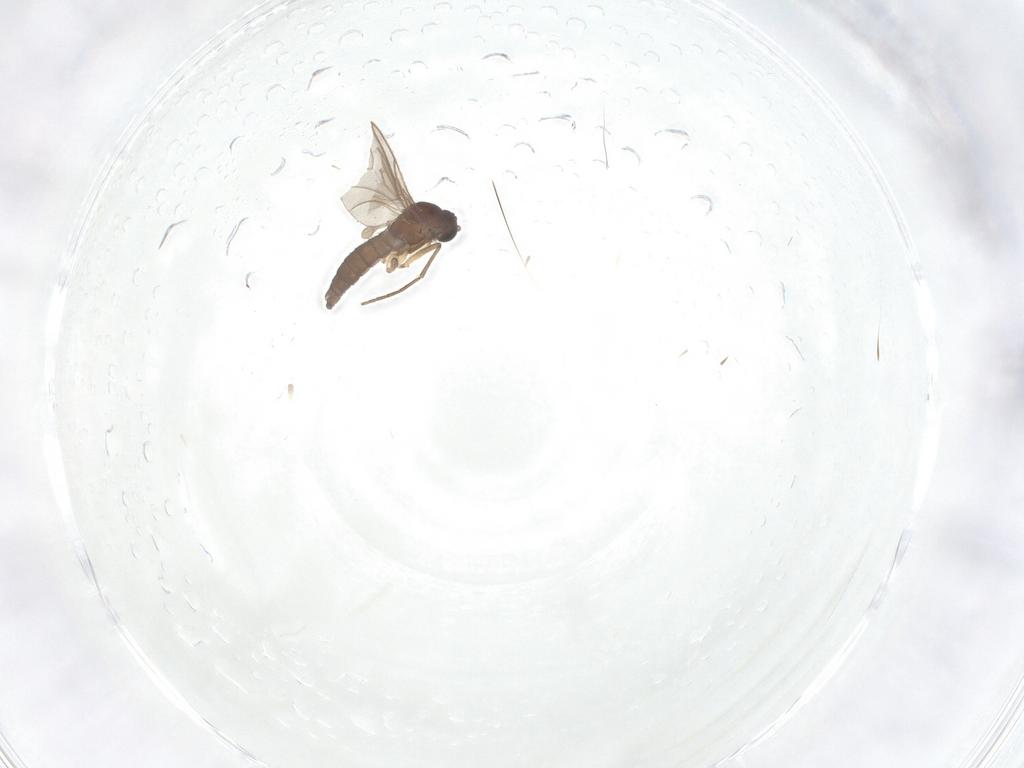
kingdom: Animalia
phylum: Arthropoda
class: Insecta
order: Diptera
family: Sciaridae
